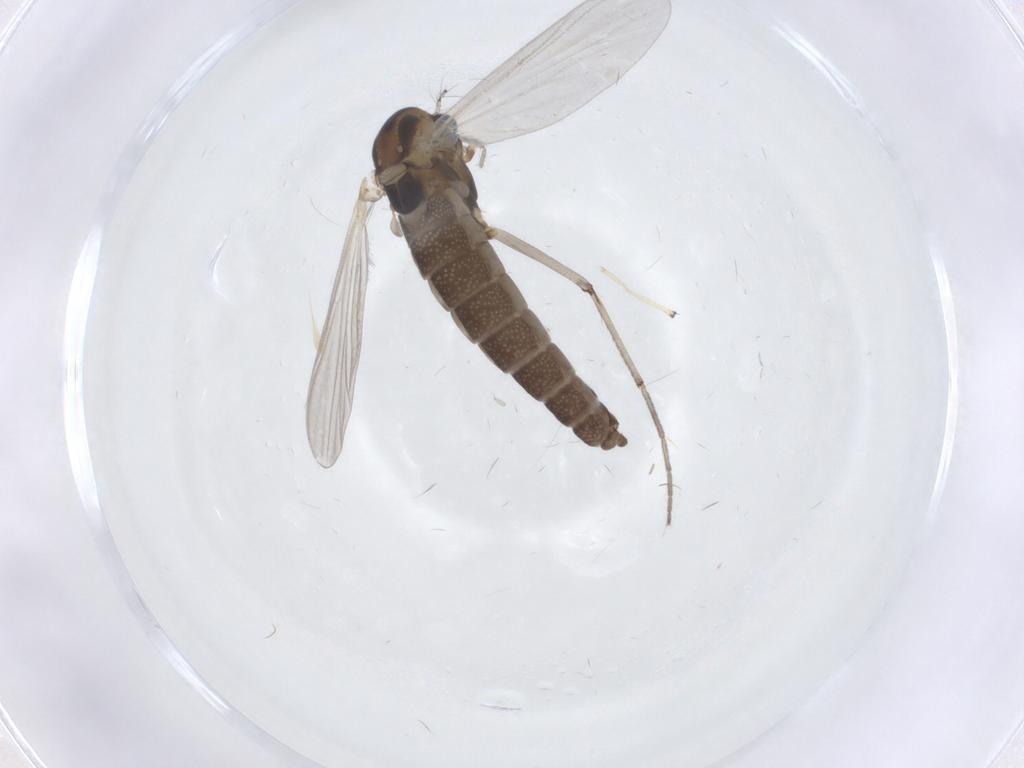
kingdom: Animalia
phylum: Arthropoda
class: Insecta
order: Diptera
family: Chironomidae
